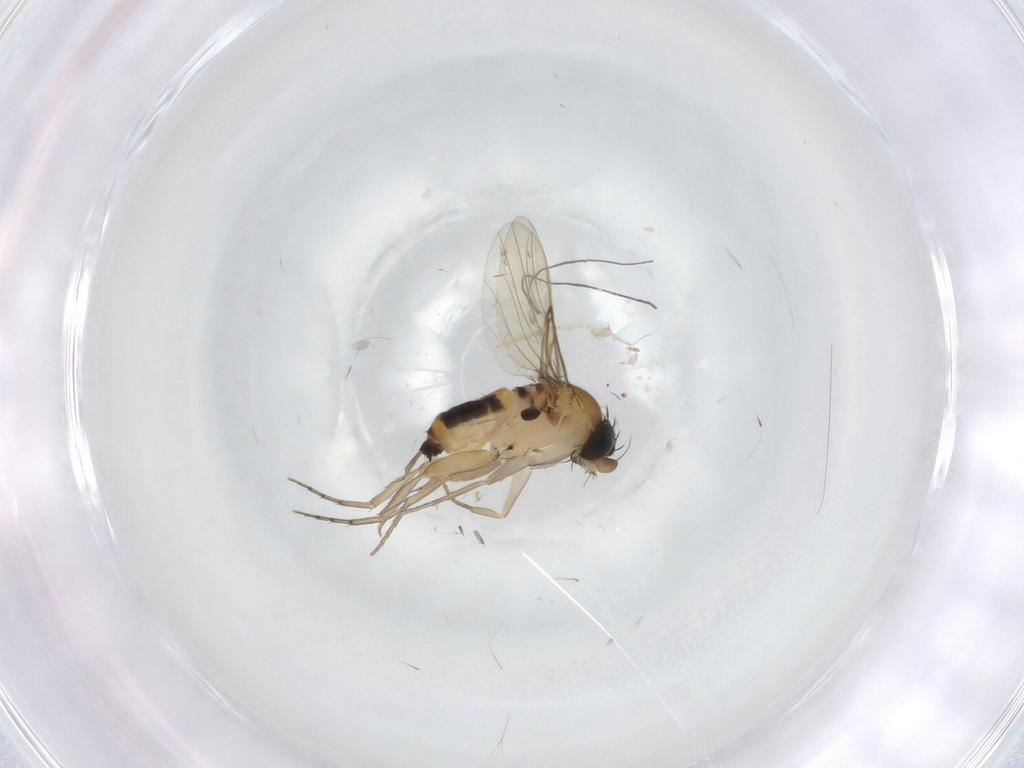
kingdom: Animalia
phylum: Arthropoda
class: Insecta
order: Diptera
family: Phoridae
